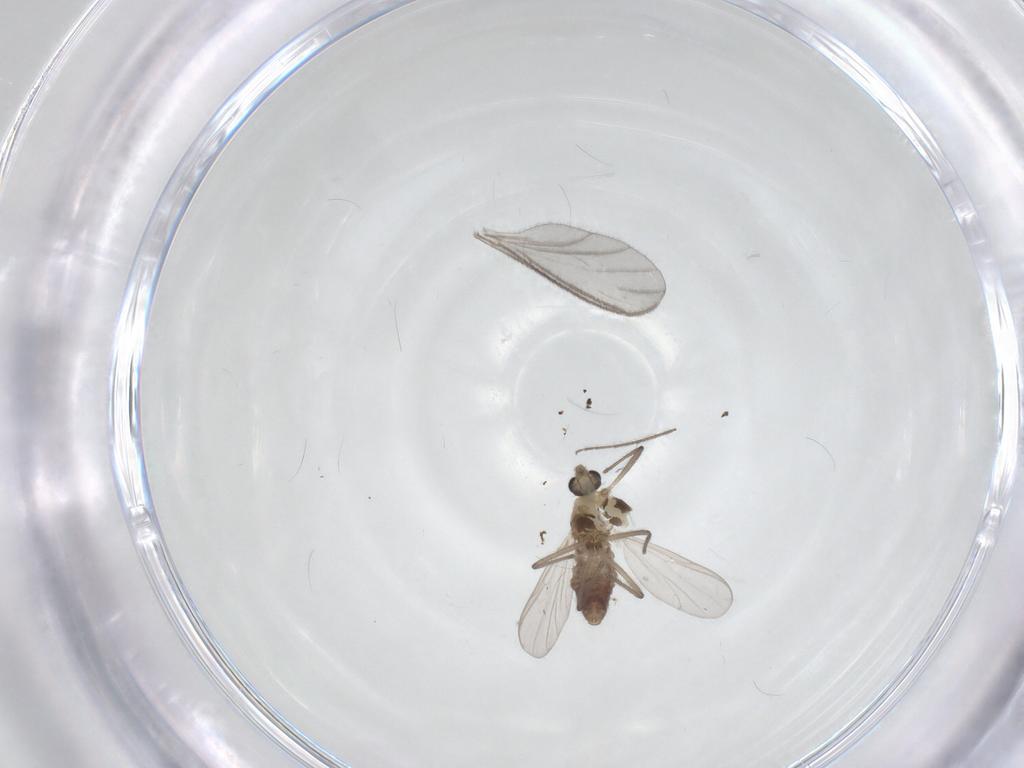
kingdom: Animalia
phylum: Arthropoda
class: Insecta
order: Diptera
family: Chironomidae
